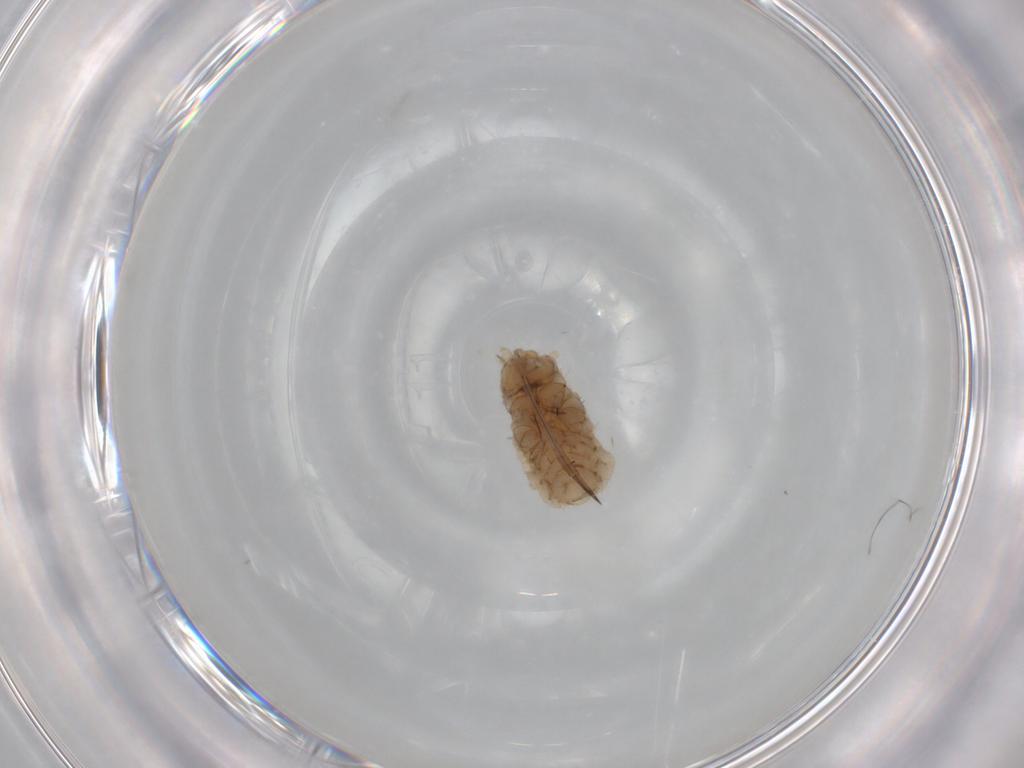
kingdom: Animalia
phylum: Arthropoda
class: Insecta
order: Hemiptera
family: Aphididae
